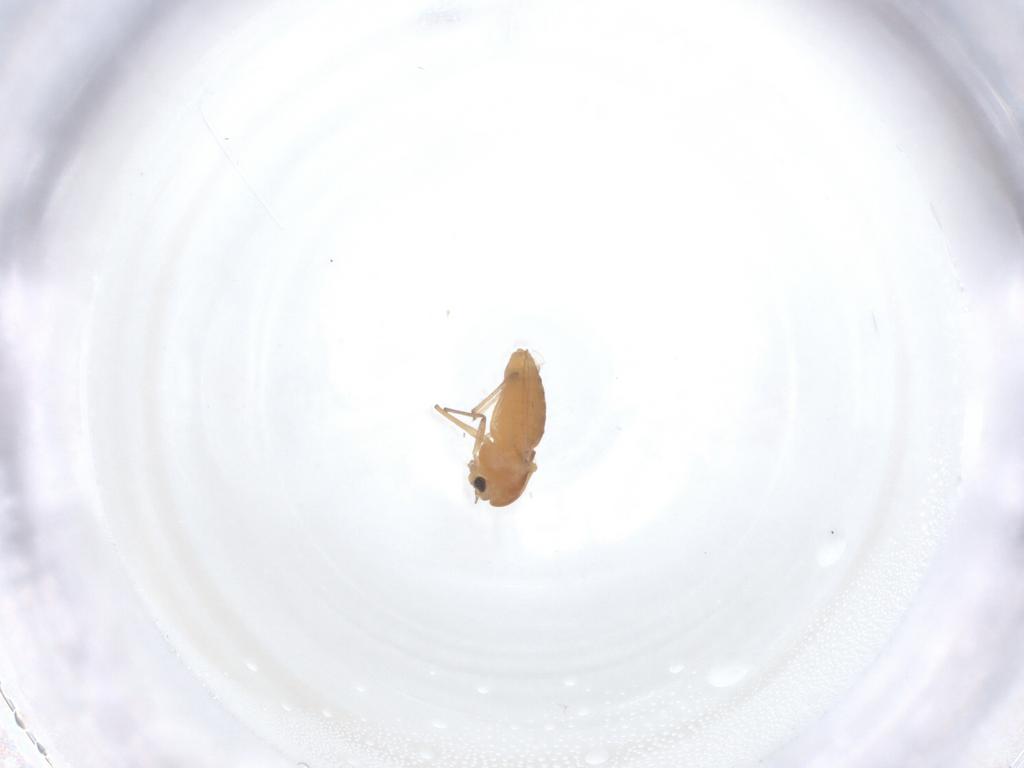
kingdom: Animalia
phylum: Arthropoda
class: Insecta
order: Diptera
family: Chironomidae
